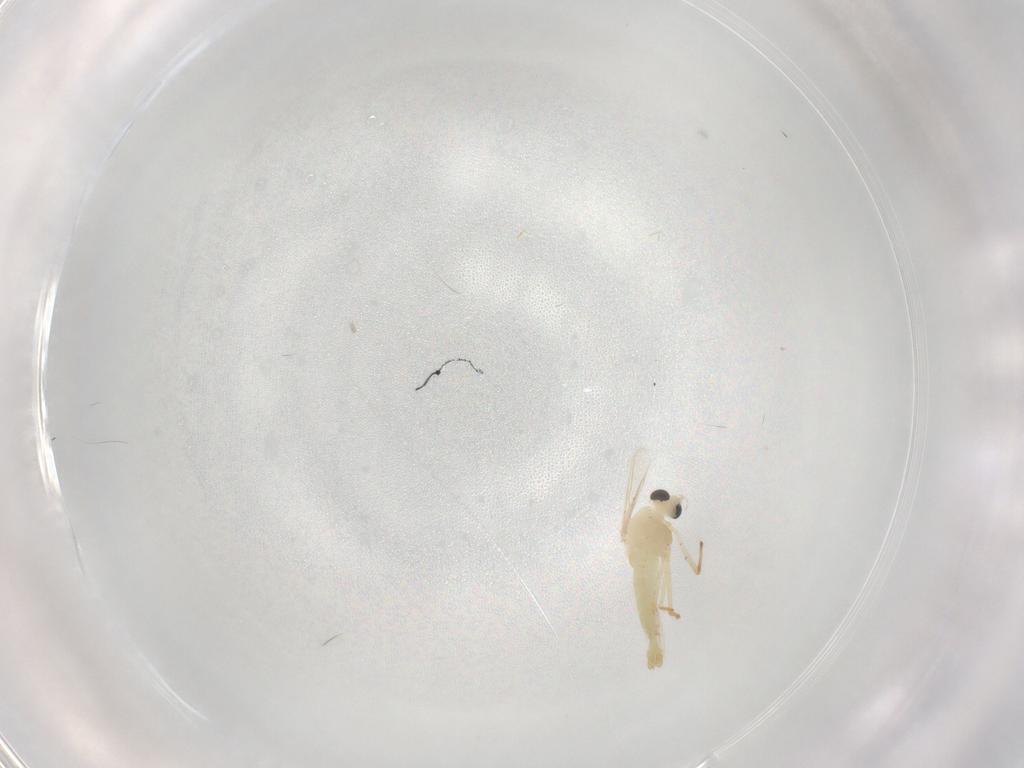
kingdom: Animalia
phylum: Arthropoda
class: Insecta
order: Diptera
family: Chironomidae
